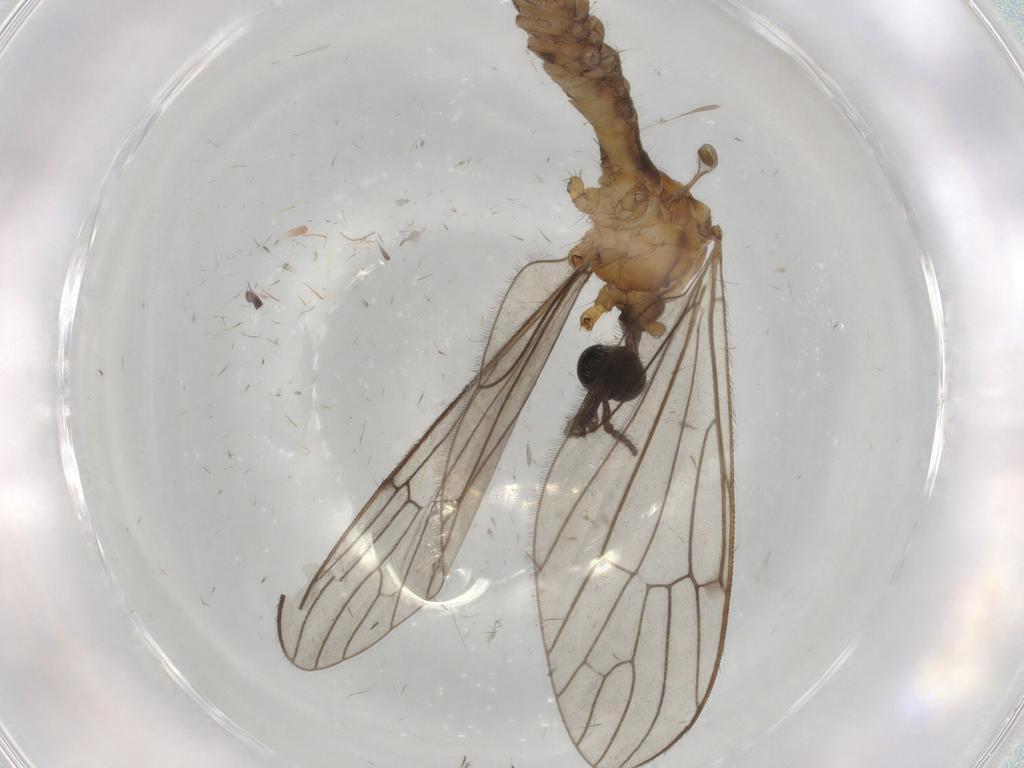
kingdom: Animalia
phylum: Arthropoda
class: Insecta
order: Diptera
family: Limoniidae
